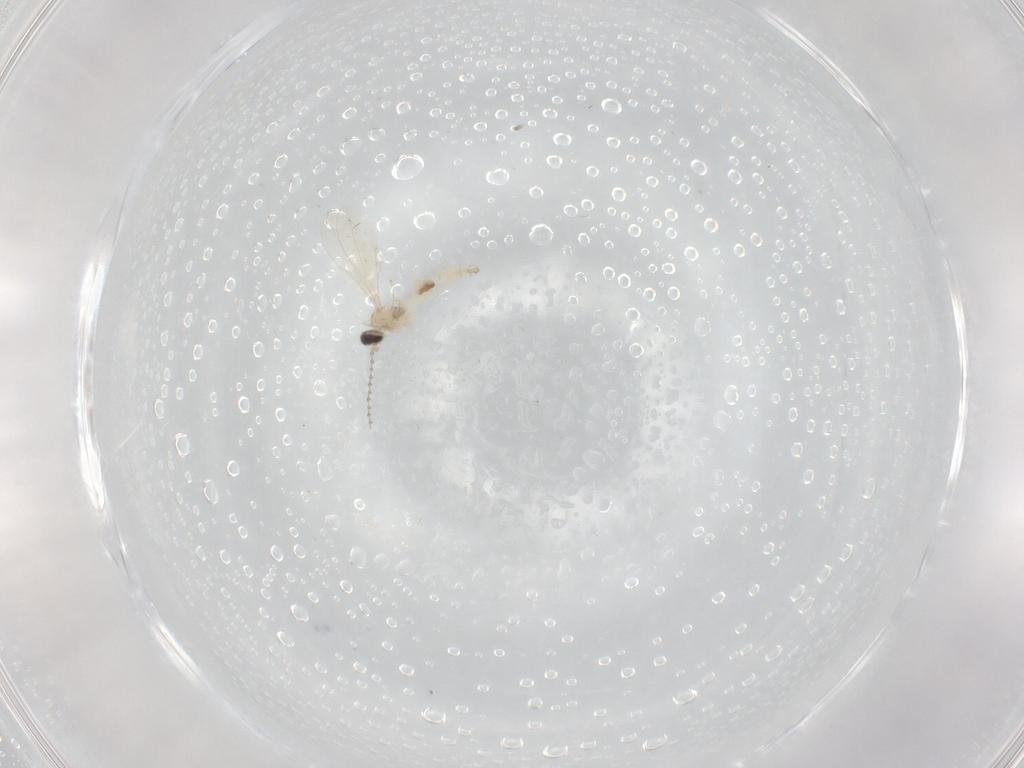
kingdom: Animalia
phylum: Arthropoda
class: Insecta
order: Diptera
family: Cecidomyiidae
